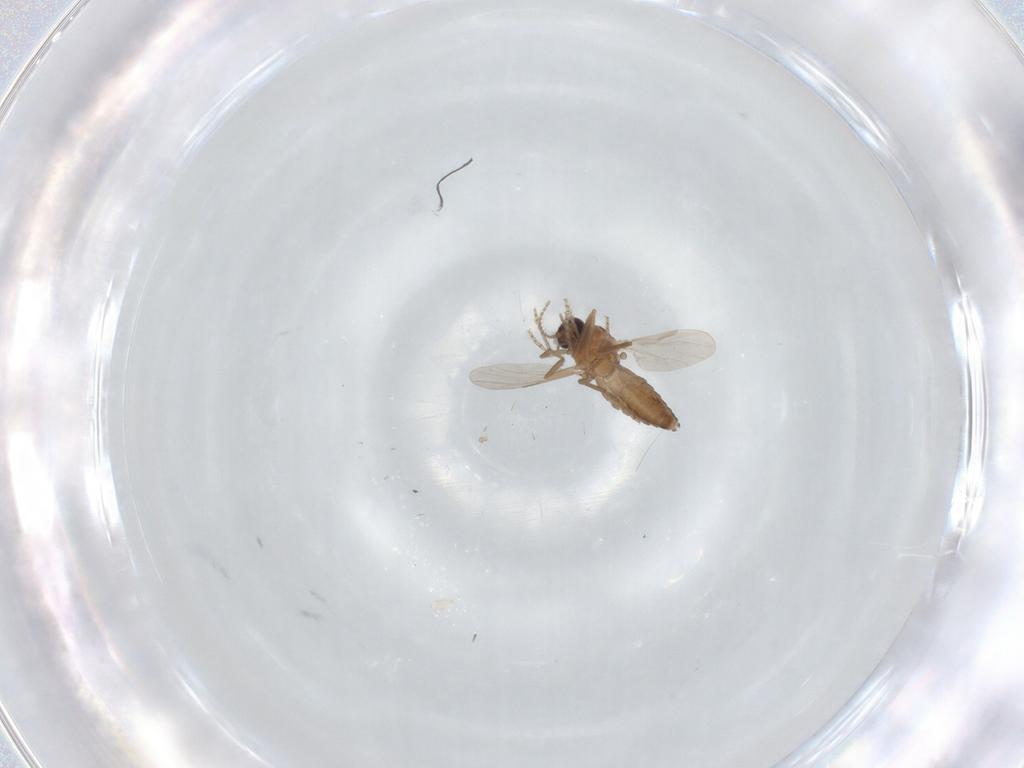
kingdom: Animalia
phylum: Arthropoda
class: Insecta
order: Diptera
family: Ceratopogonidae
